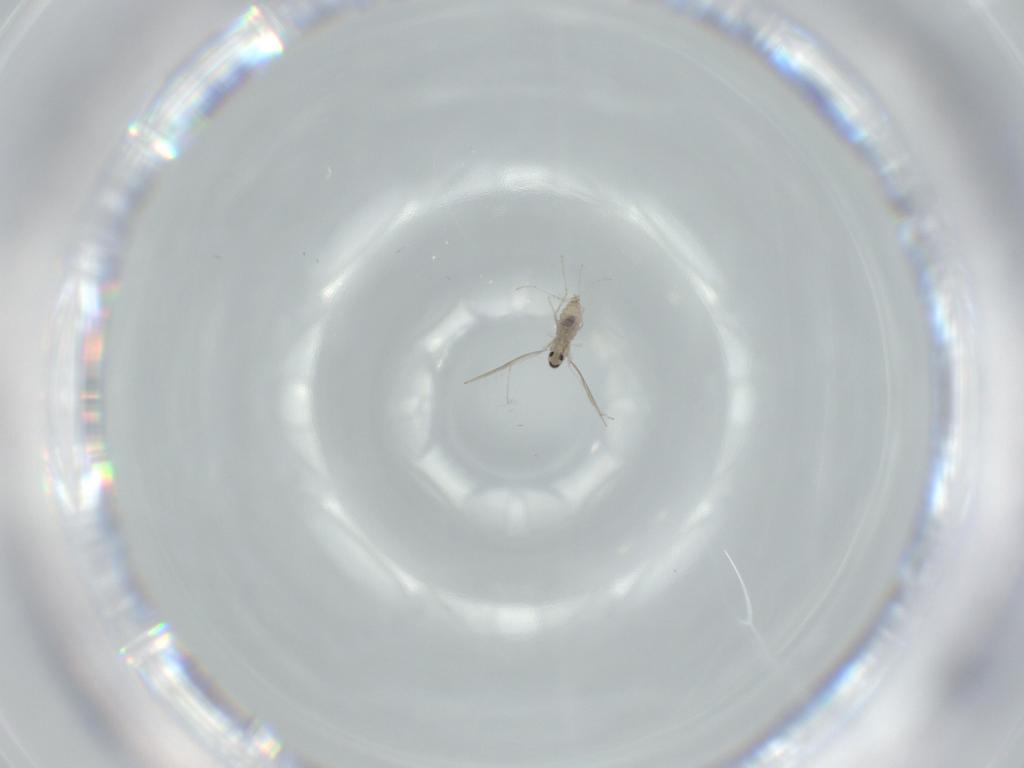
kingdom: Animalia
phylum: Arthropoda
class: Insecta
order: Diptera
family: Cecidomyiidae
